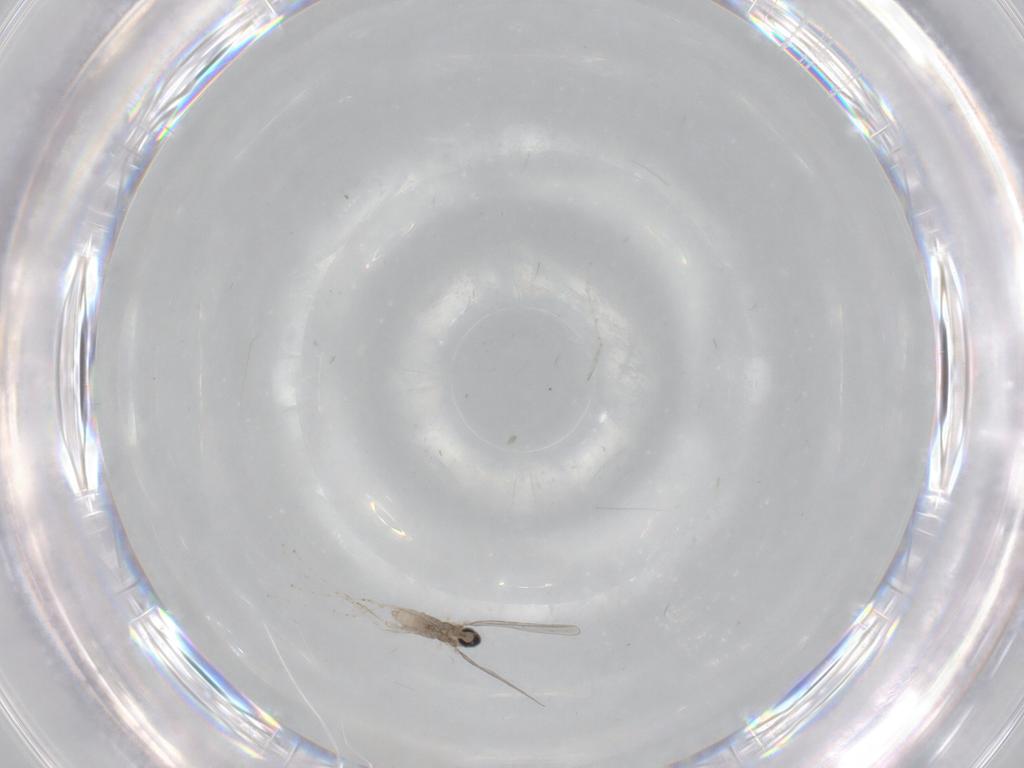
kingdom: Animalia
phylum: Arthropoda
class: Insecta
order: Diptera
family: Cecidomyiidae
